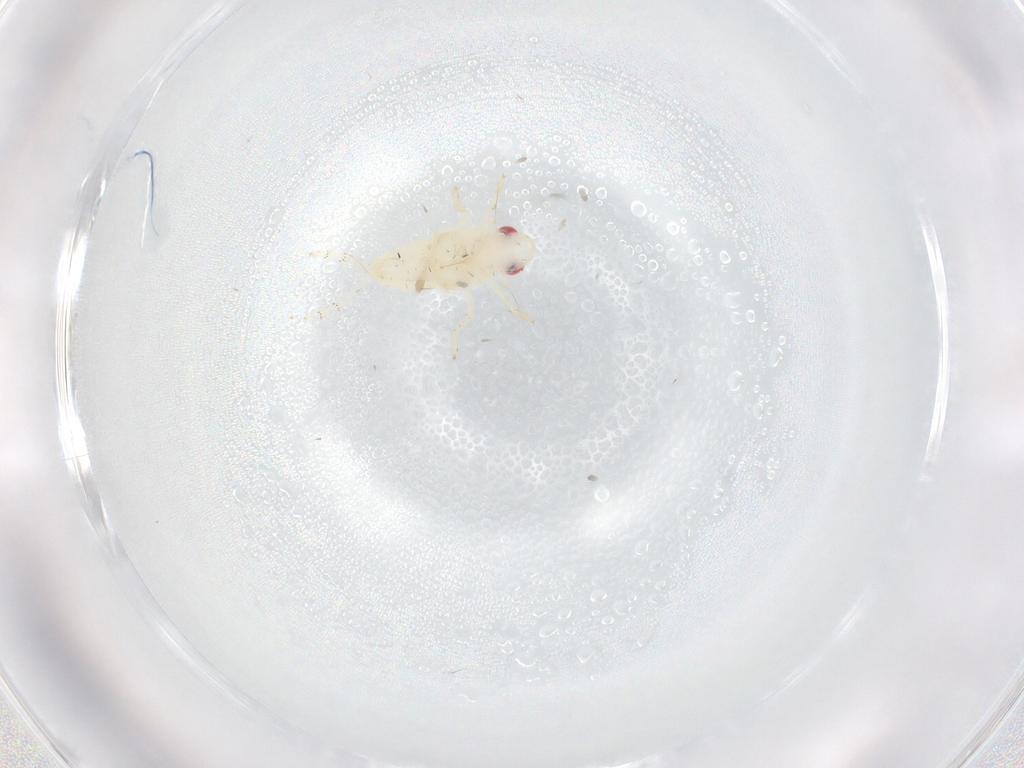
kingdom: Animalia
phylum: Arthropoda
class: Insecta
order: Hemiptera
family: Tropiduchidae
